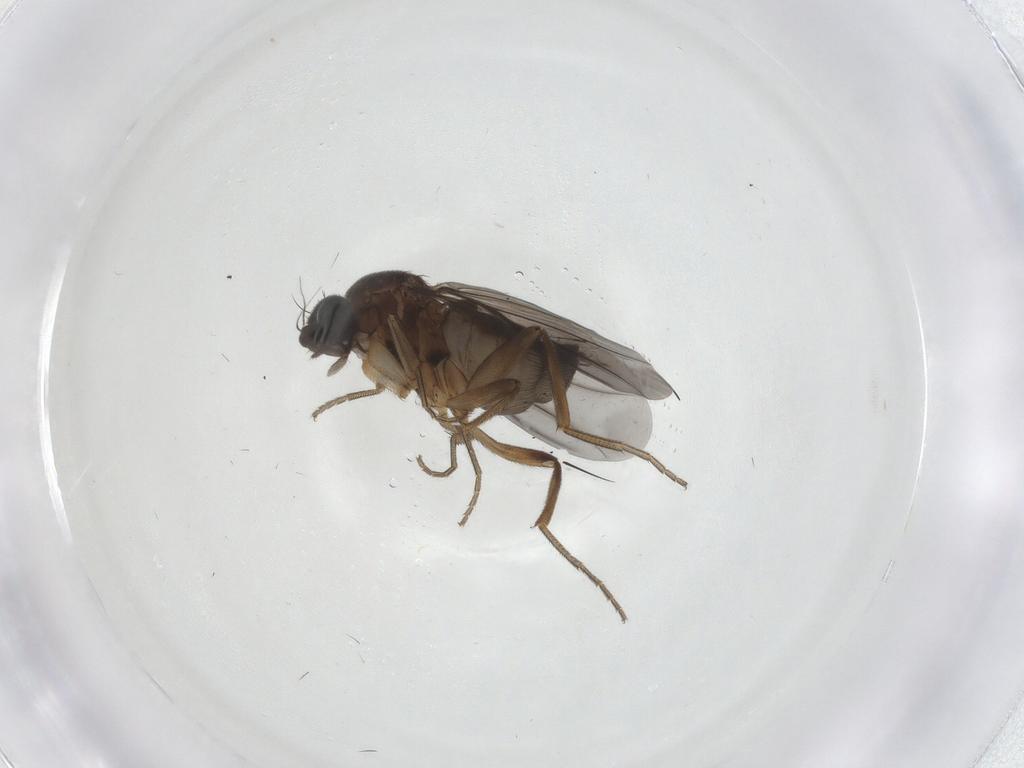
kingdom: Animalia
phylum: Arthropoda
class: Insecta
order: Diptera
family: Phoridae
